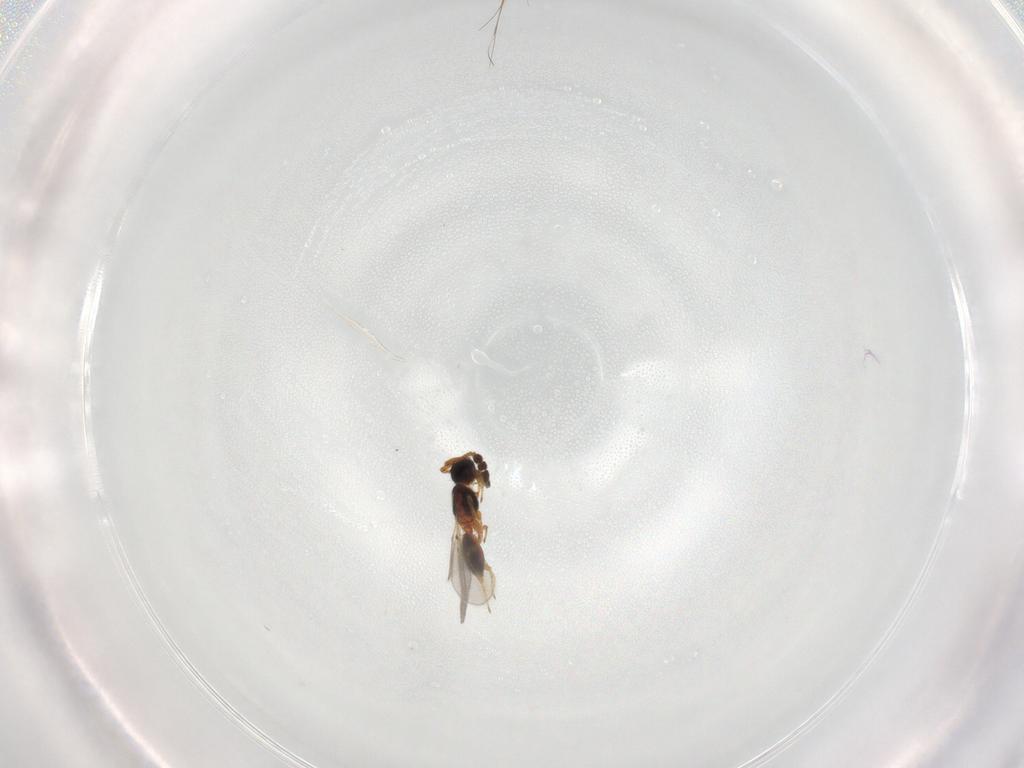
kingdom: Animalia
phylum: Arthropoda
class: Insecta
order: Hymenoptera
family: Diapriidae
